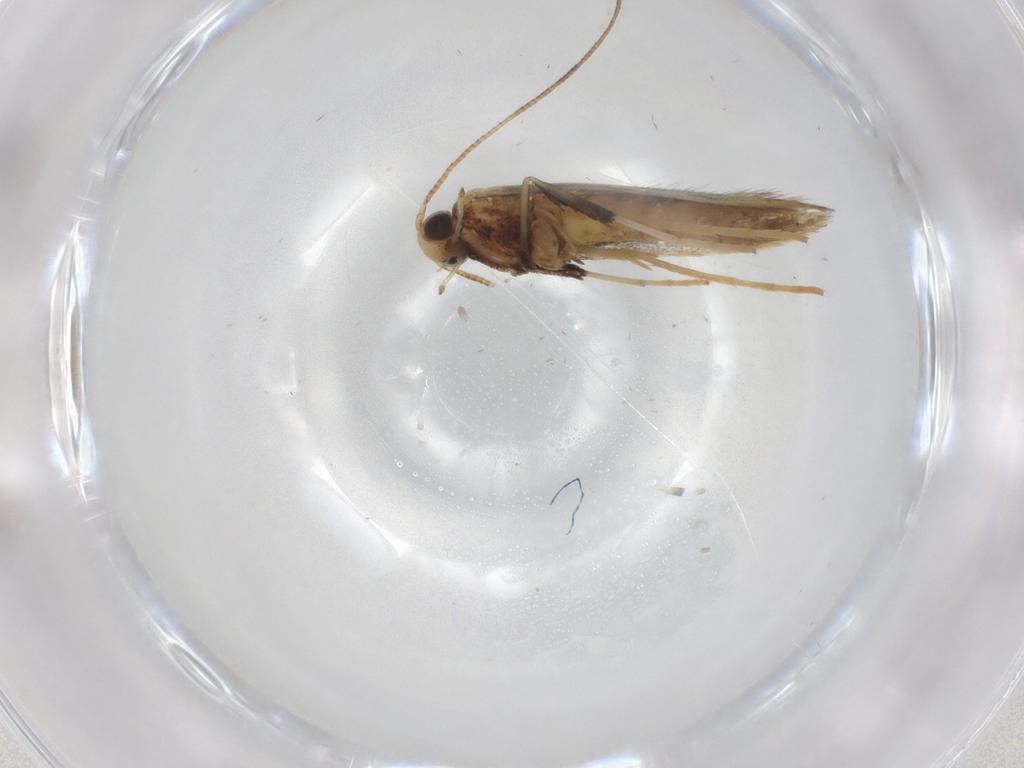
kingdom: Animalia
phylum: Arthropoda
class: Insecta
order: Lepidoptera
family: Gracillariidae
